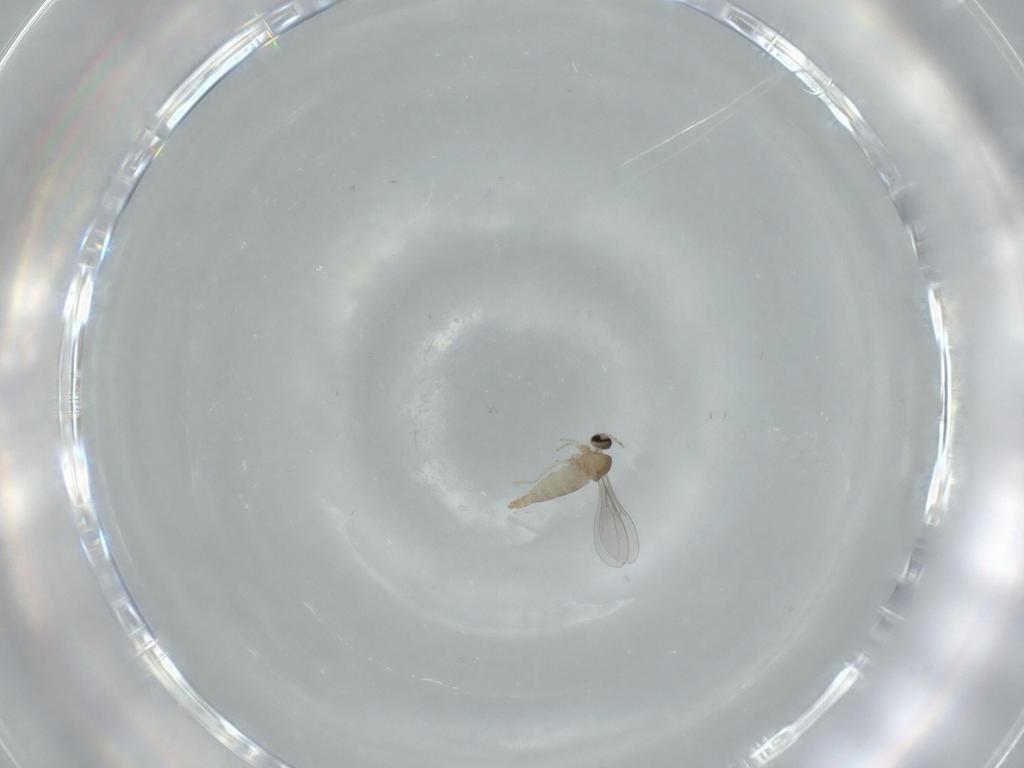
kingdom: Animalia
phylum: Arthropoda
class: Insecta
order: Diptera
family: Cecidomyiidae
